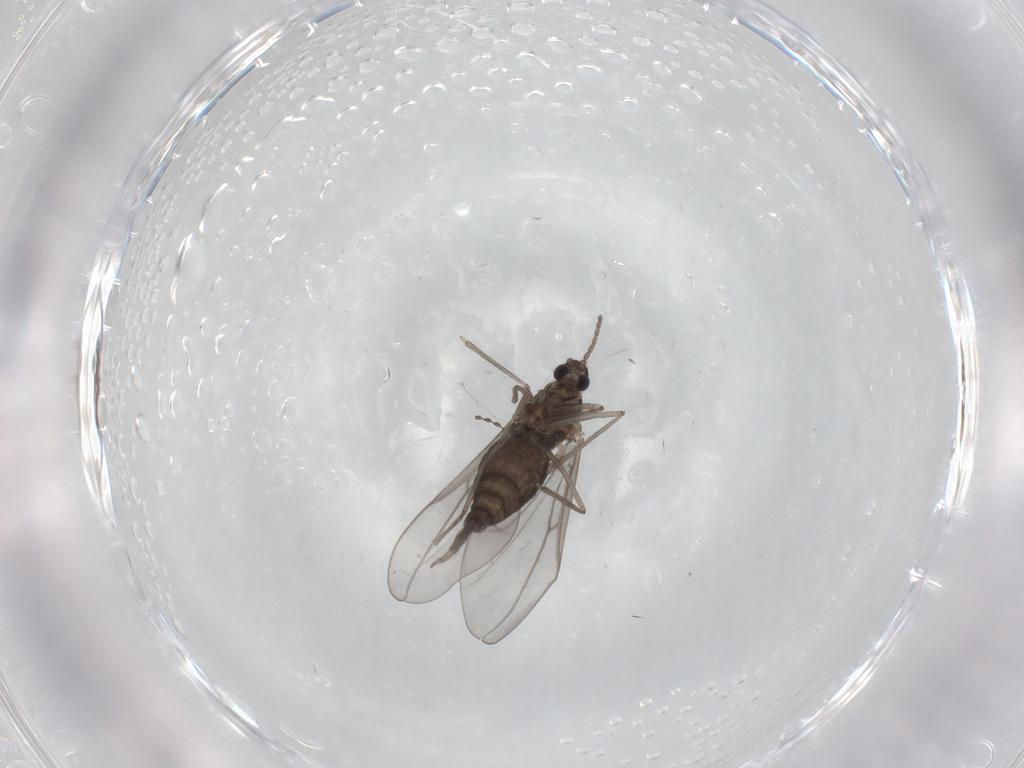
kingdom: Animalia
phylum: Arthropoda
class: Insecta
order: Diptera
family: Cecidomyiidae
